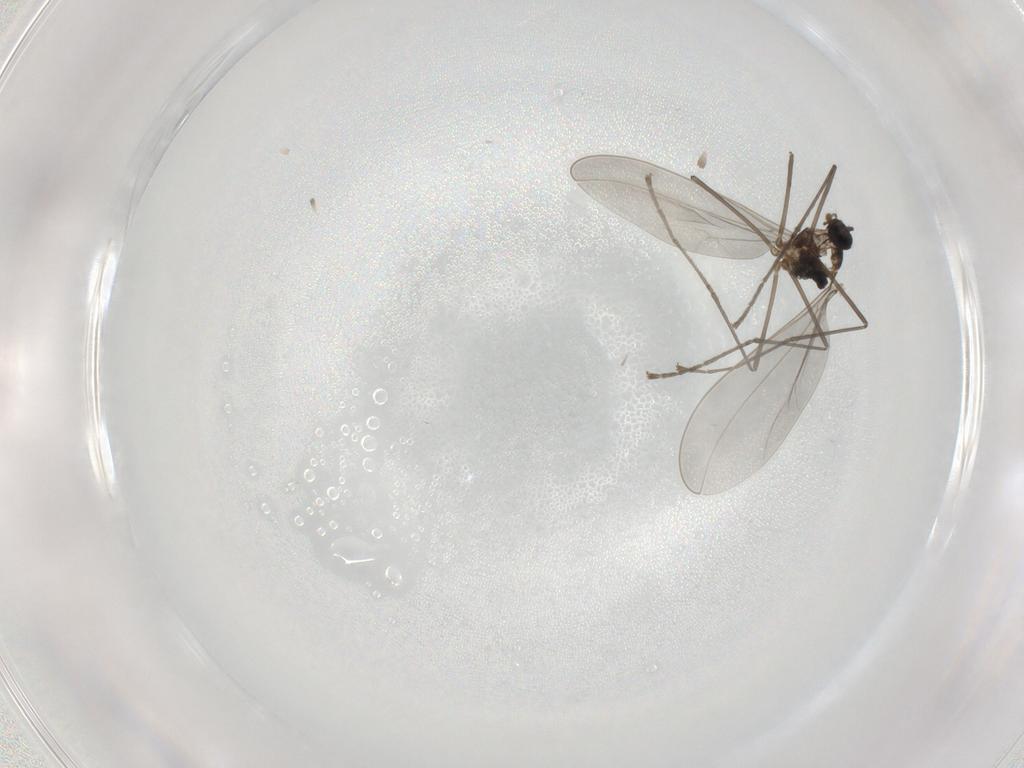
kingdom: Animalia
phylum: Arthropoda
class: Insecta
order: Diptera
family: Cecidomyiidae
